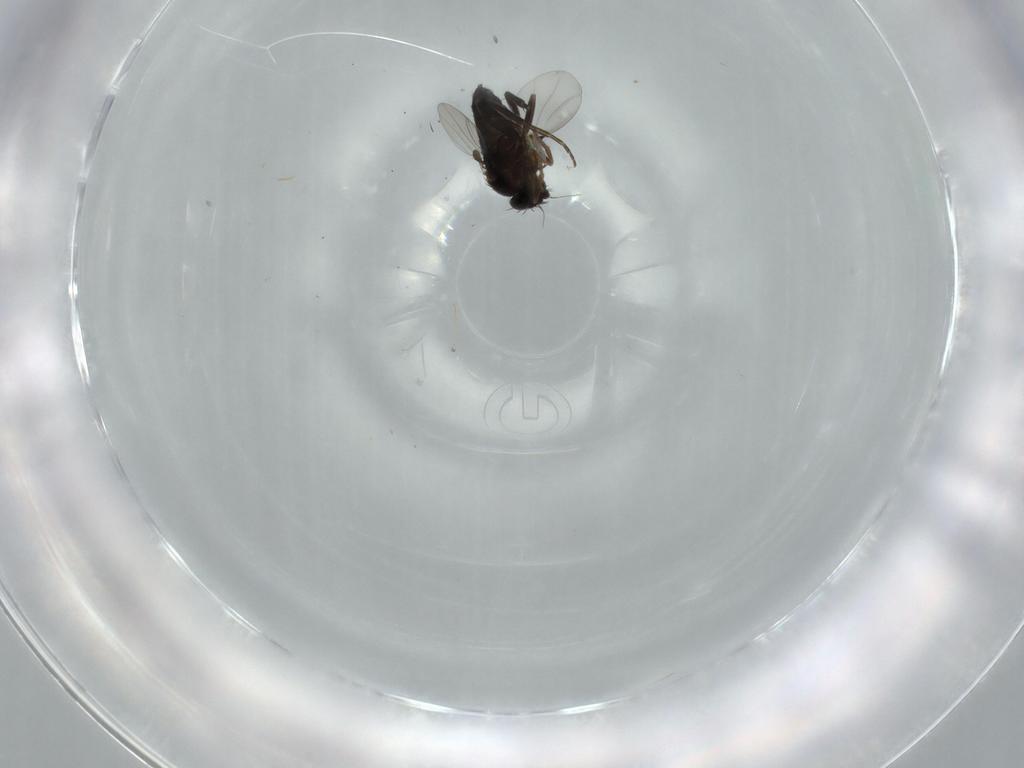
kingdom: Animalia
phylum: Arthropoda
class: Insecta
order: Diptera
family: Phoridae
